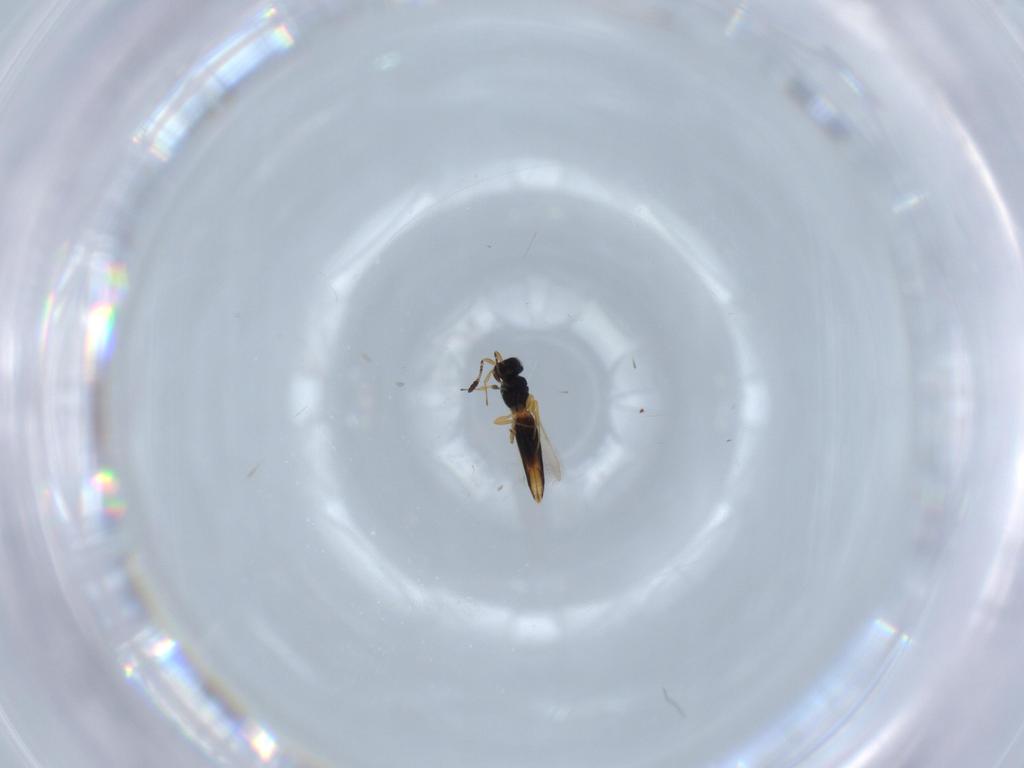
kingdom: Animalia
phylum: Arthropoda
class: Insecta
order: Hymenoptera
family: Scelionidae
